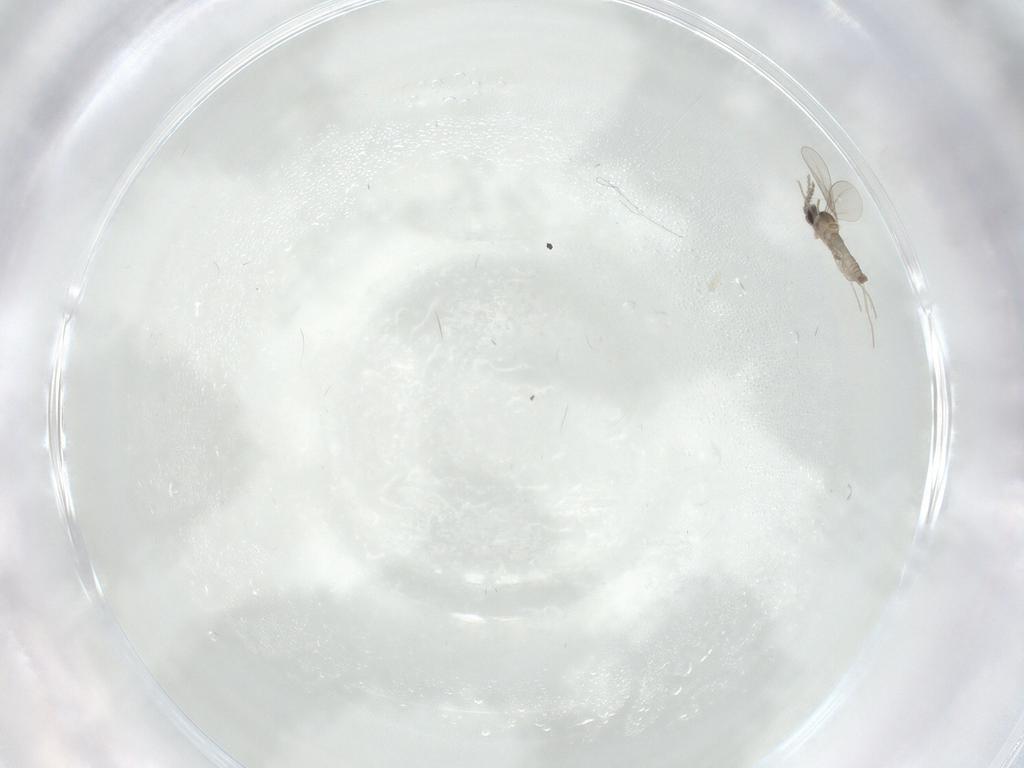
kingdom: Animalia
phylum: Arthropoda
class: Insecta
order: Diptera
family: Cecidomyiidae
